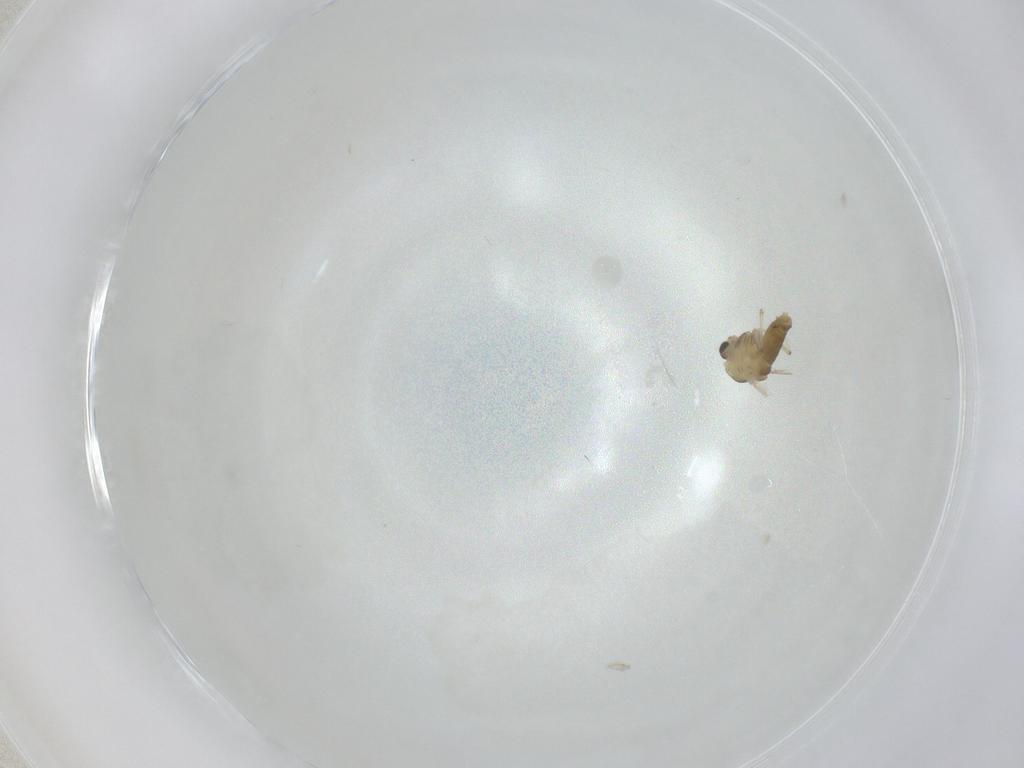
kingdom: Animalia
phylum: Arthropoda
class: Insecta
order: Diptera
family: Chironomidae
